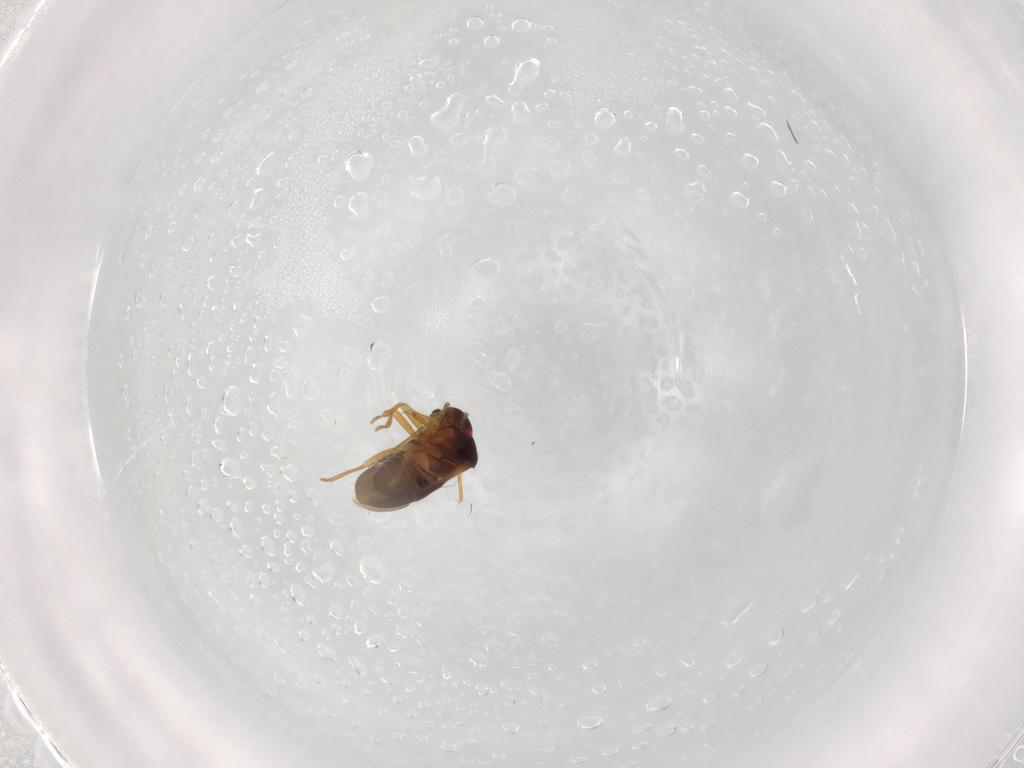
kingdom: Animalia
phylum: Arthropoda
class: Insecta
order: Hemiptera
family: Schizopteridae
